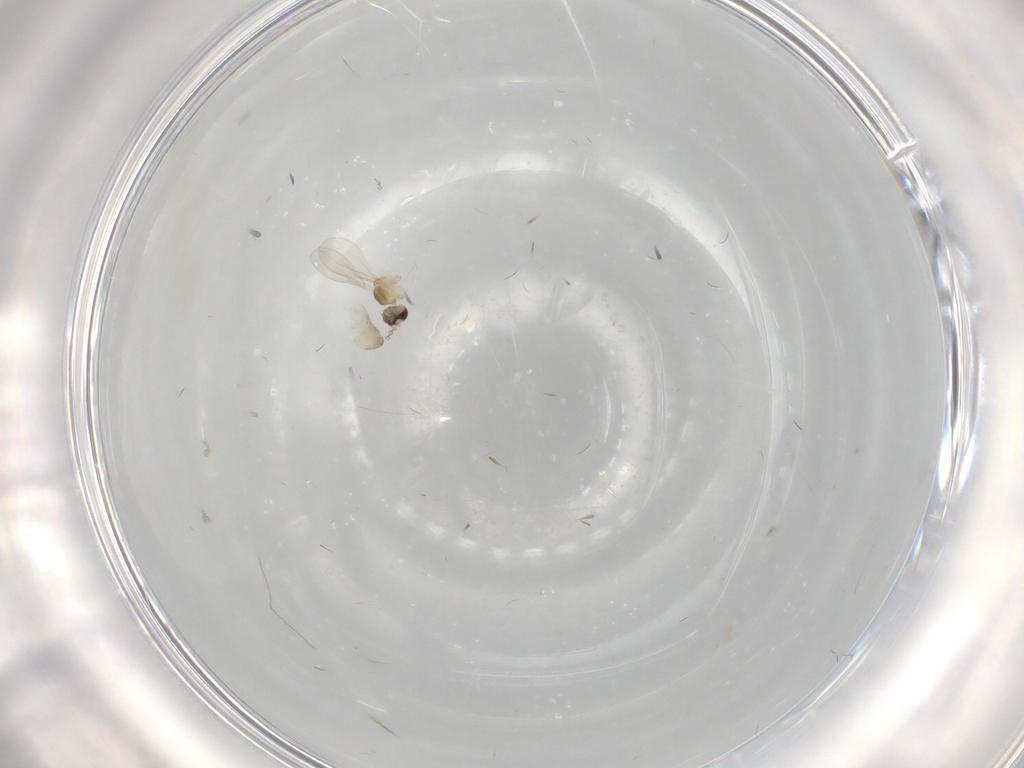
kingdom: Animalia
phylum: Arthropoda
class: Insecta
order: Diptera
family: Cecidomyiidae
